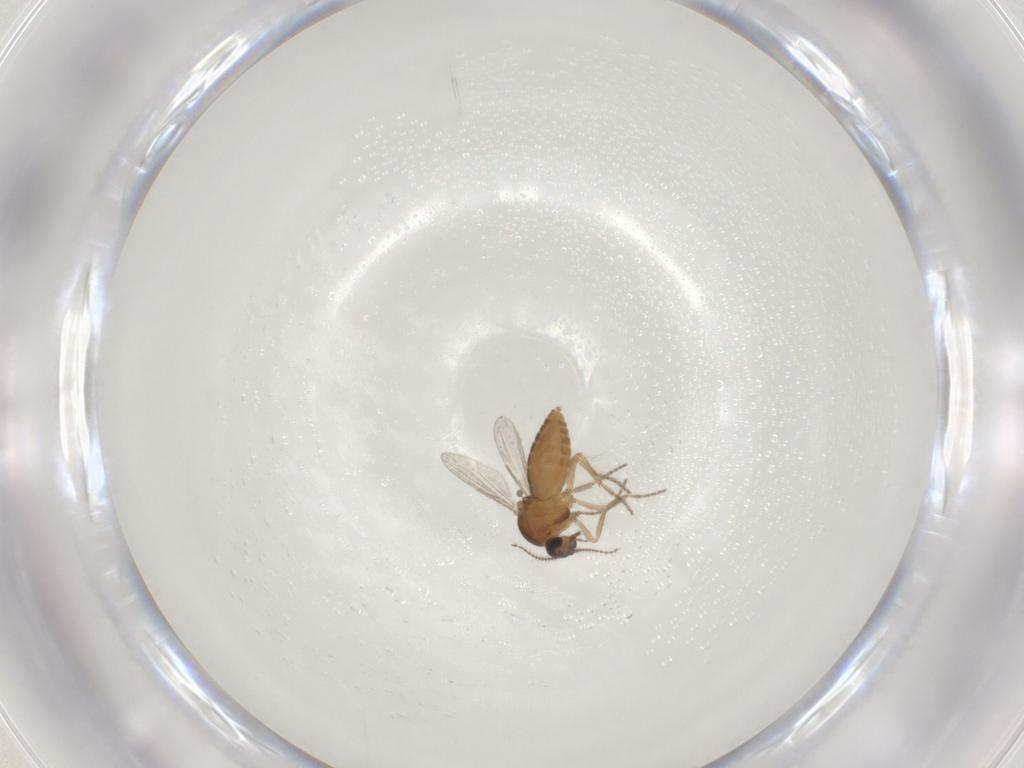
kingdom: Animalia
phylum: Arthropoda
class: Insecta
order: Diptera
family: Ceratopogonidae
